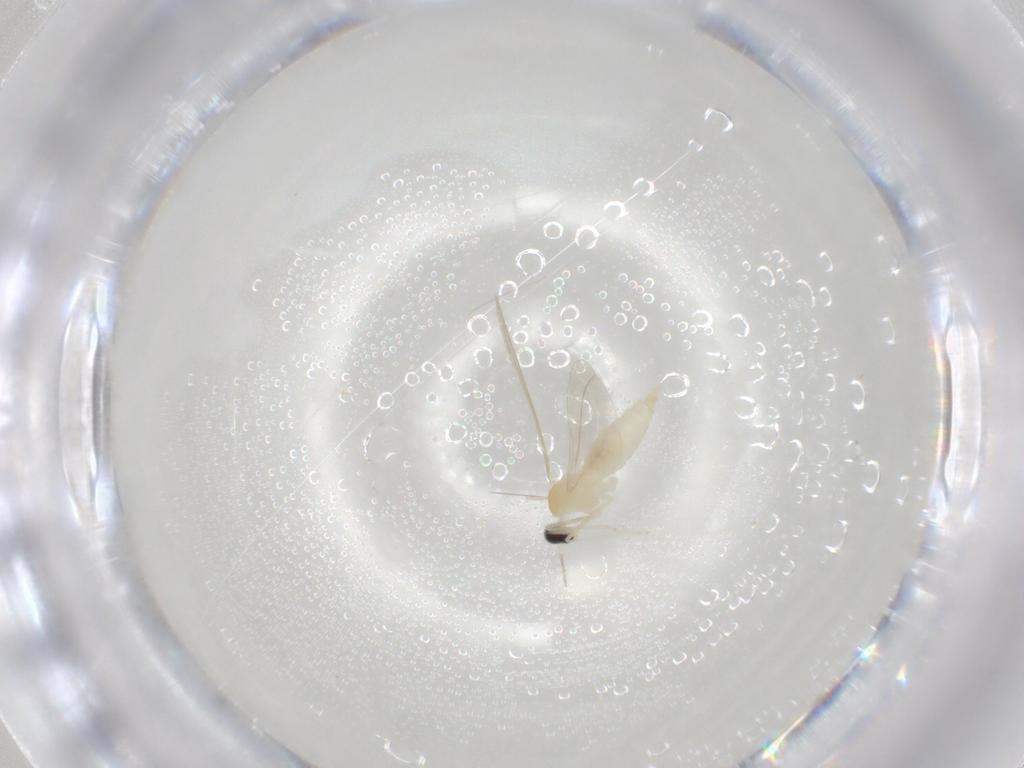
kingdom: Animalia
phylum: Arthropoda
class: Insecta
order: Diptera
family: Cecidomyiidae
